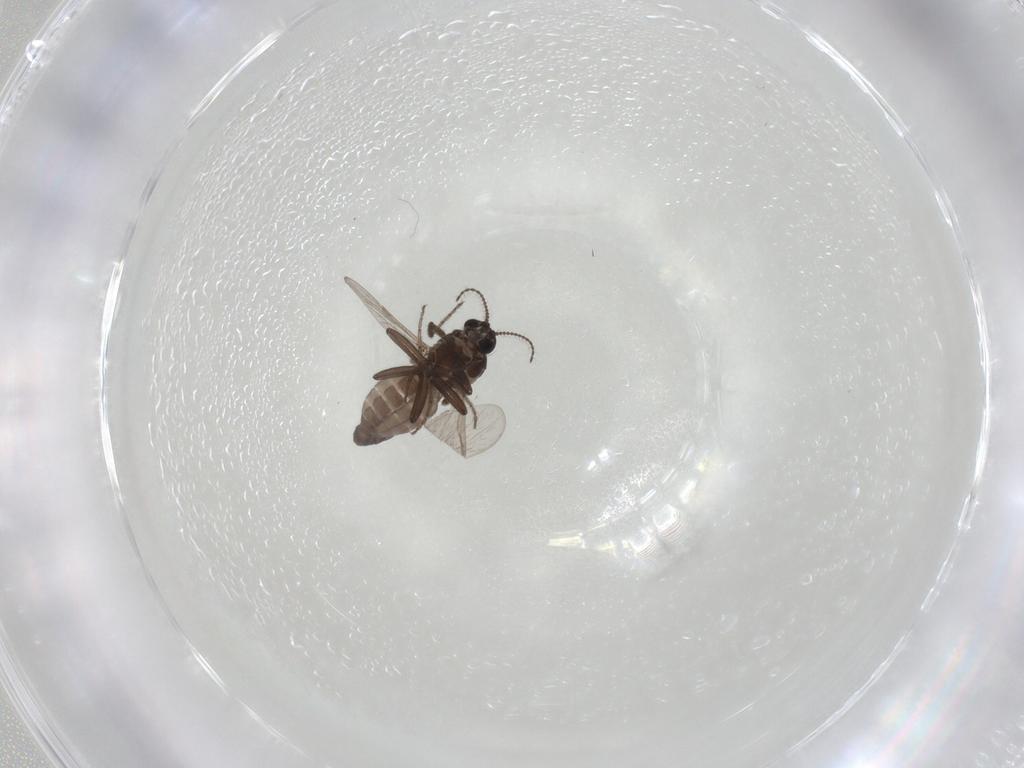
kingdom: Animalia
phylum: Arthropoda
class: Insecta
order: Diptera
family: Ceratopogonidae
